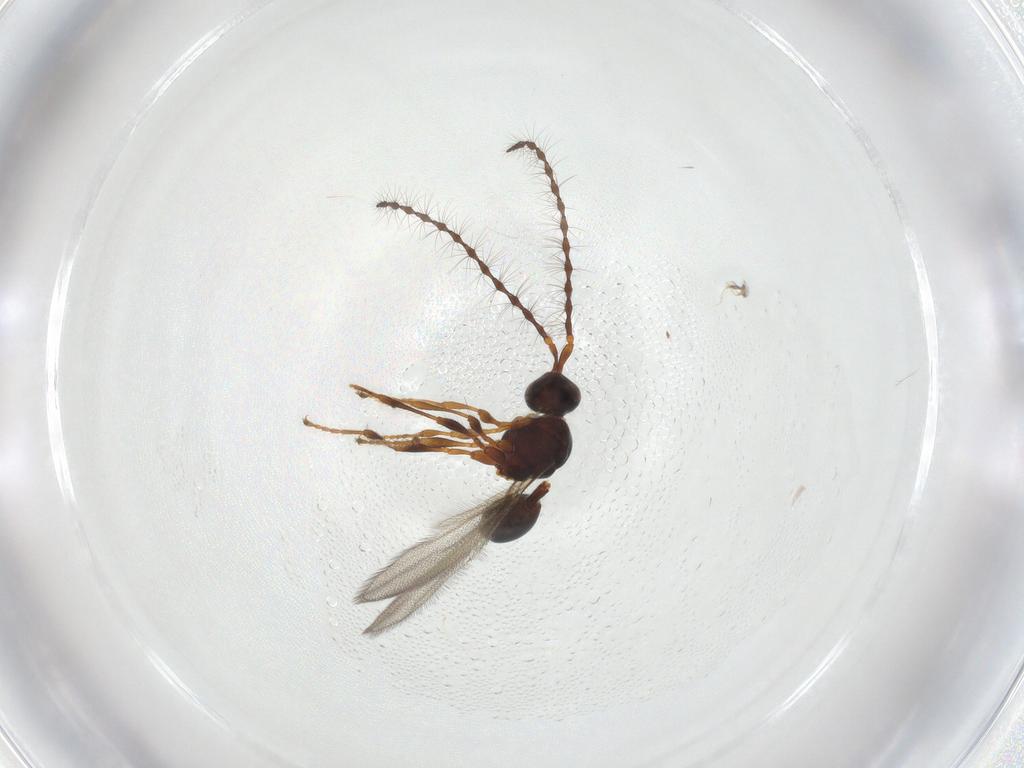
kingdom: Animalia
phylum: Arthropoda
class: Insecta
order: Hymenoptera
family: Diapriidae
